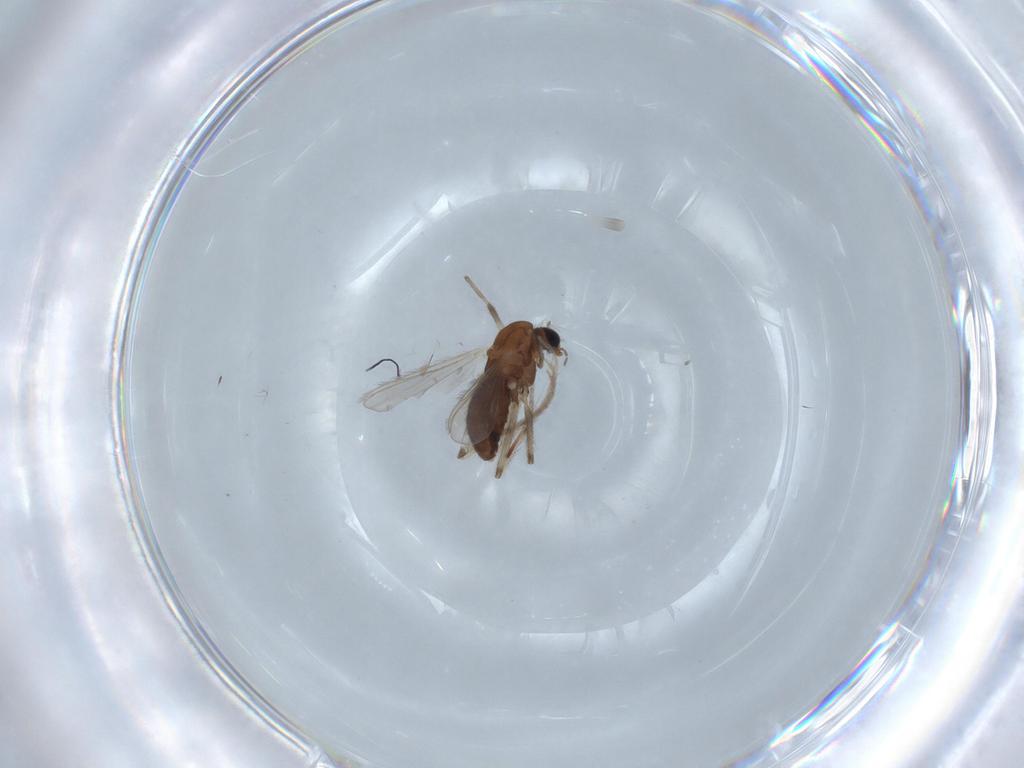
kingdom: Animalia
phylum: Arthropoda
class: Insecta
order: Diptera
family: Chironomidae
